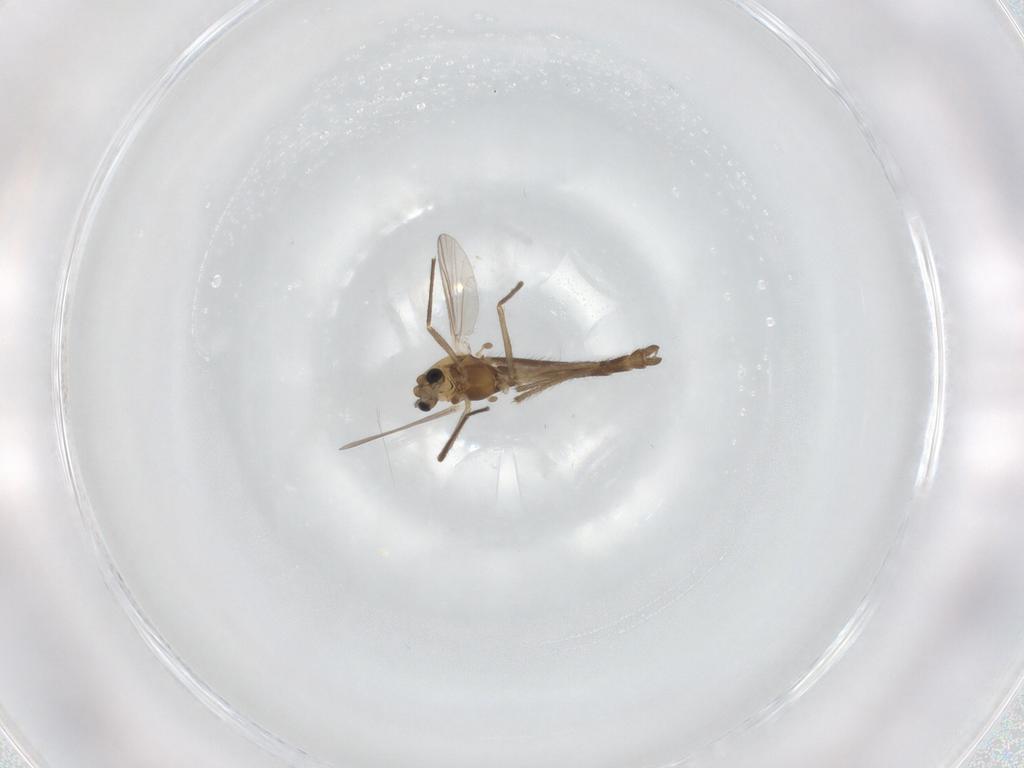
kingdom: Animalia
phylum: Arthropoda
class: Insecta
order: Diptera
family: Chironomidae
